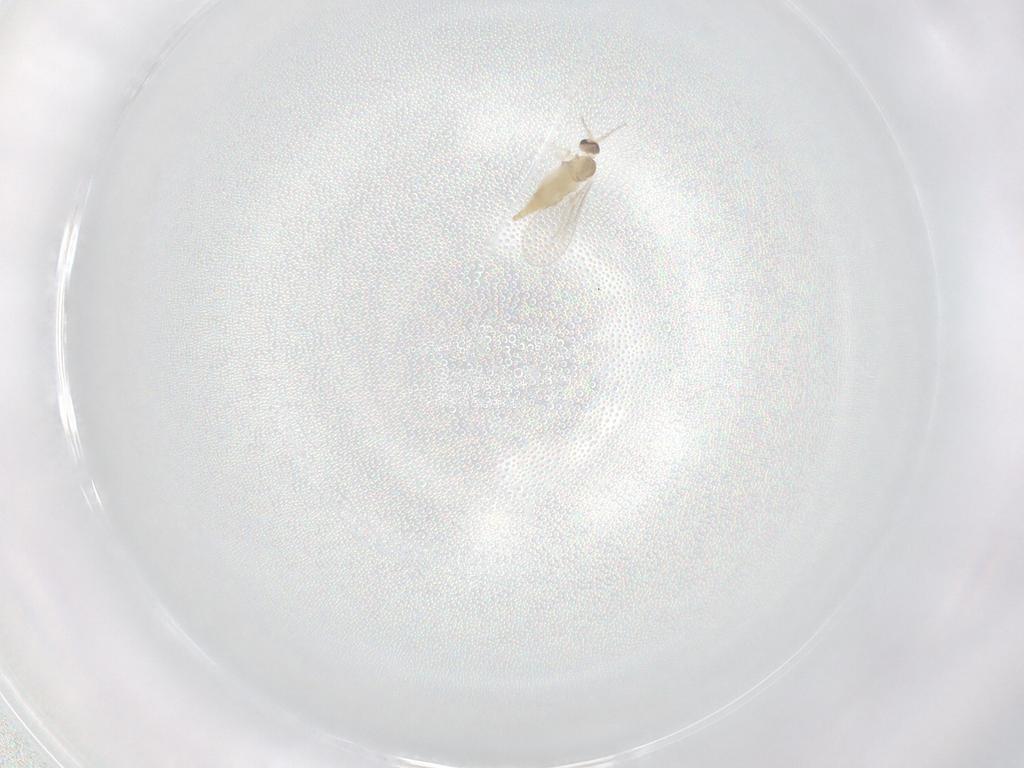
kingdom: Animalia
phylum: Arthropoda
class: Insecta
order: Diptera
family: Cecidomyiidae
